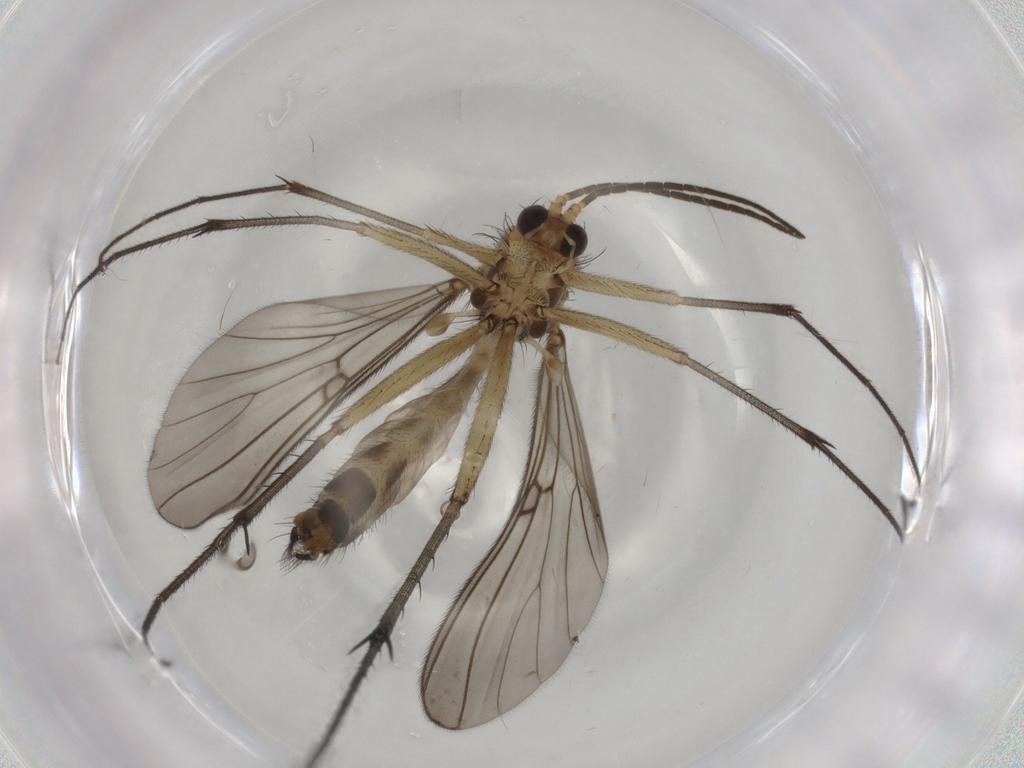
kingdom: Animalia
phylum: Arthropoda
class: Insecta
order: Diptera
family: Mycetophilidae
